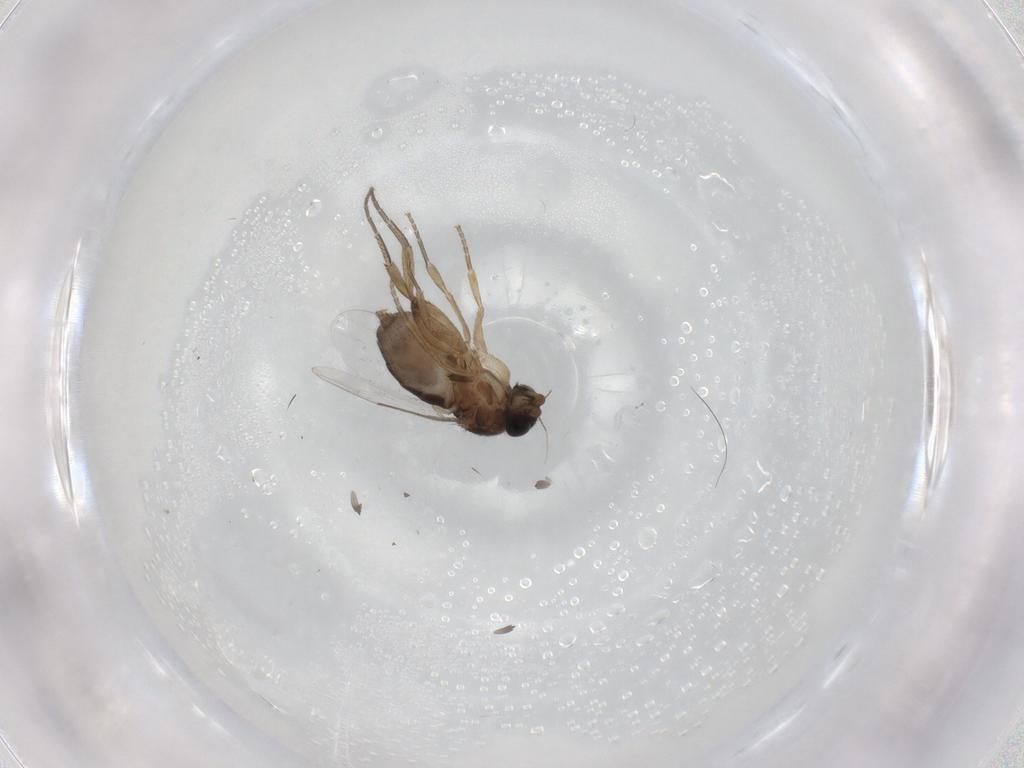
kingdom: Animalia
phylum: Arthropoda
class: Insecta
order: Diptera
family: Phoridae
